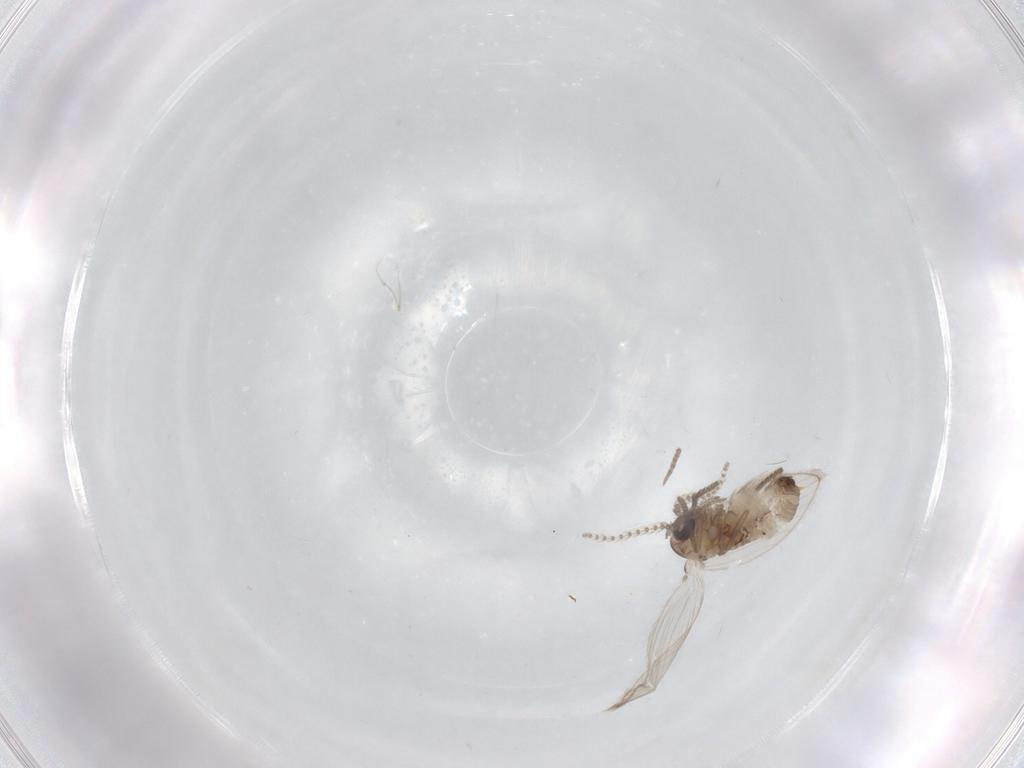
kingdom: Animalia
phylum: Arthropoda
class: Insecta
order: Diptera
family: Psychodidae
